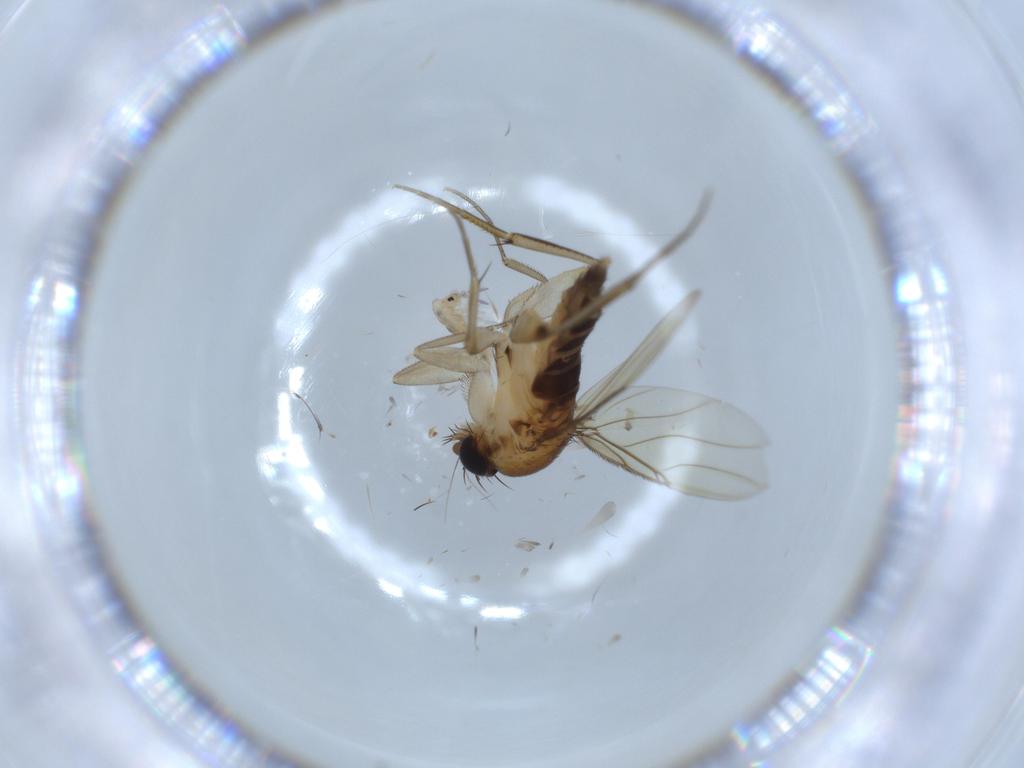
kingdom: Animalia
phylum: Arthropoda
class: Insecta
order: Diptera
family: Phoridae
